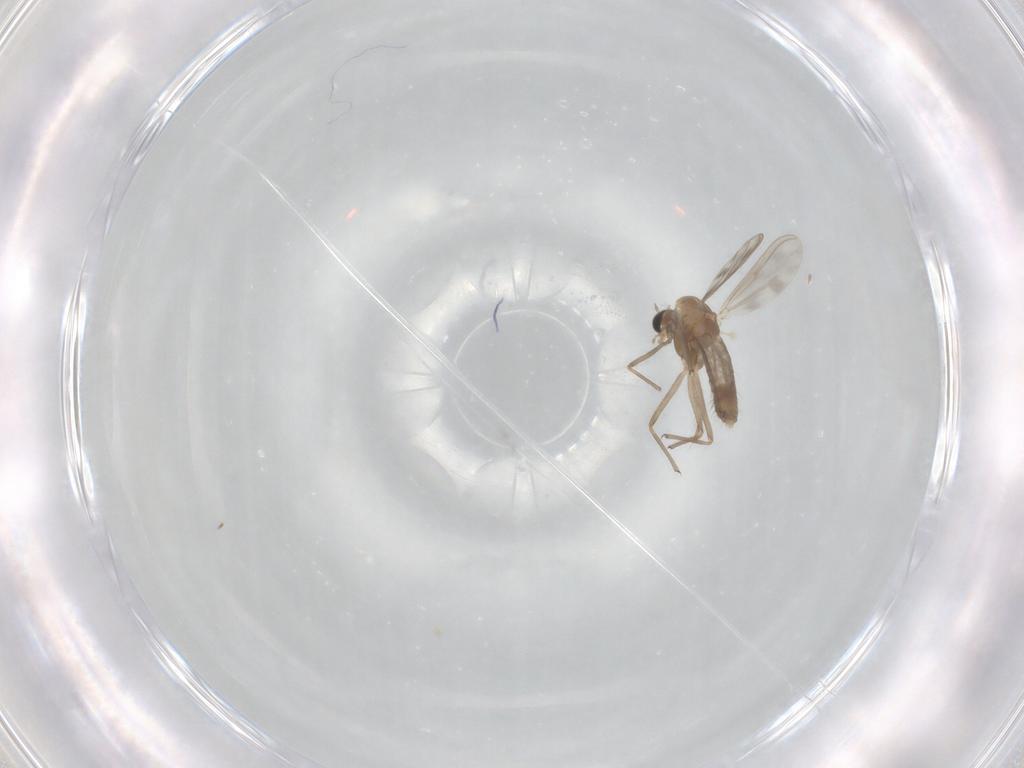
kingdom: Animalia
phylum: Arthropoda
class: Insecta
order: Diptera
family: Chironomidae
